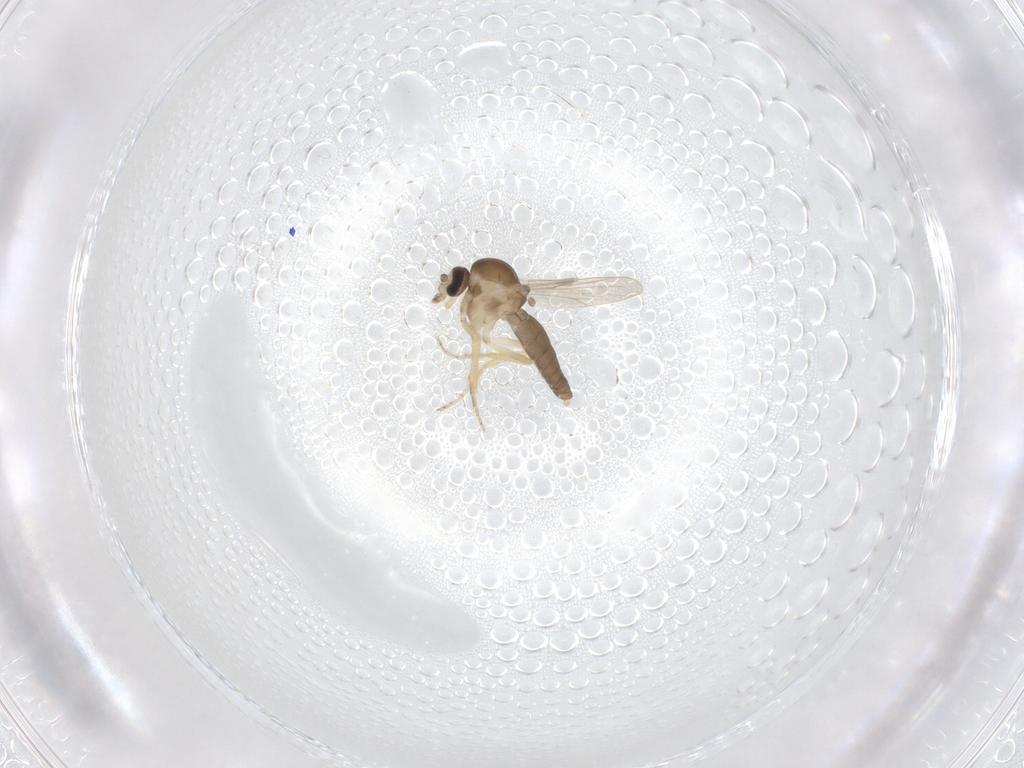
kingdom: Animalia
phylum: Arthropoda
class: Insecta
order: Diptera
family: Ceratopogonidae
